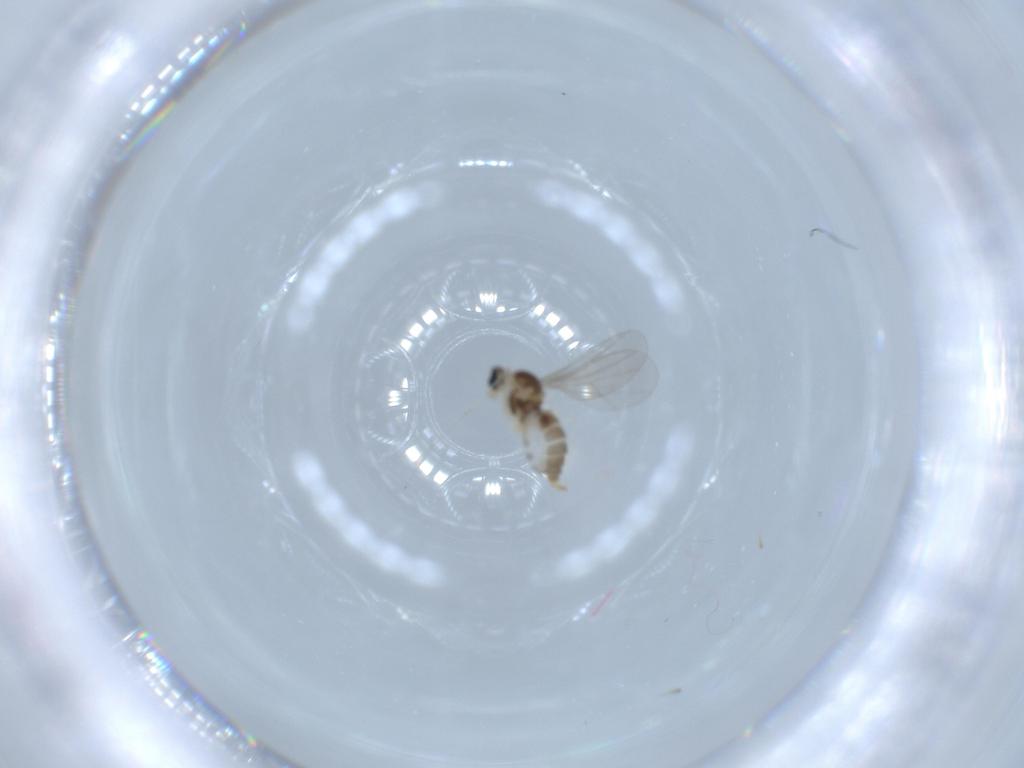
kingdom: Animalia
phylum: Arthropoda
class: Insecta
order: Diptera
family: Cecidomyiidae
